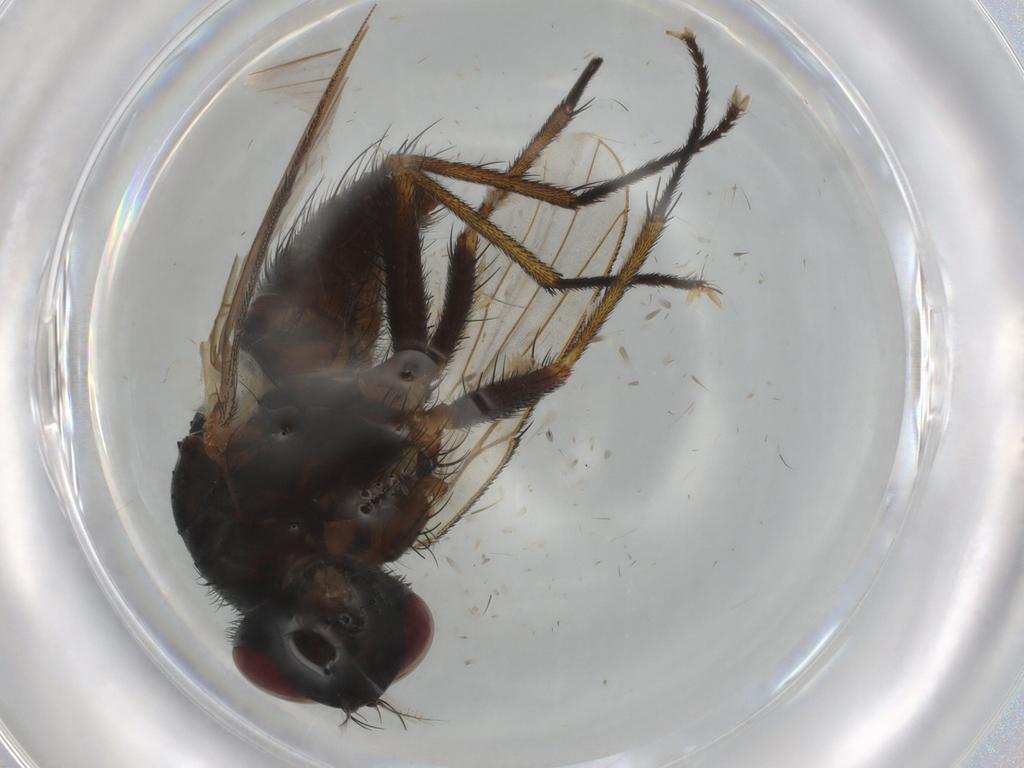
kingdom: Animalia
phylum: Arthropoda
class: Insecta
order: Diptera
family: Muscidae
